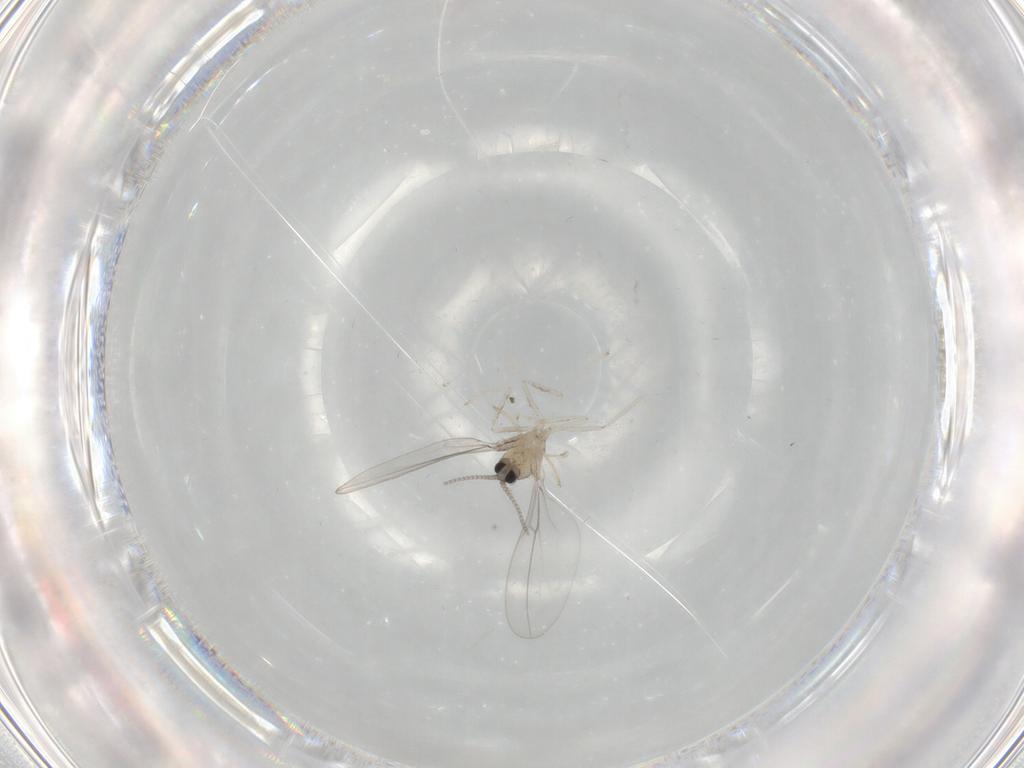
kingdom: Animalia
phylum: Arthropoda
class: Insecta
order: Diptera
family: Cecidomyiidae
